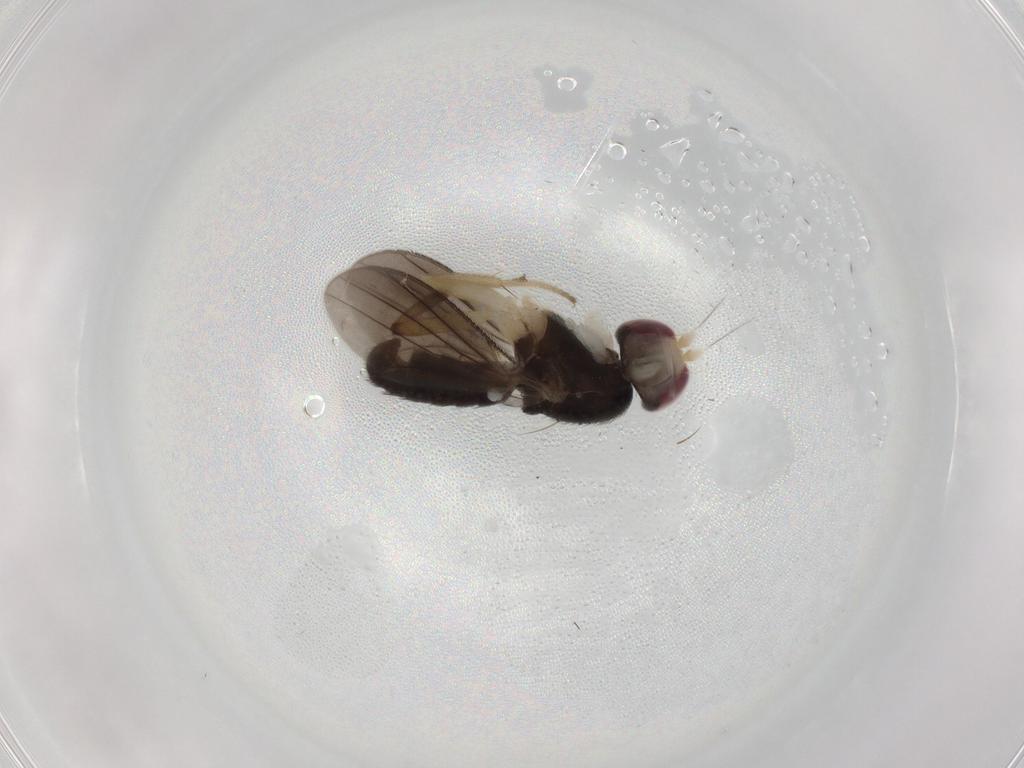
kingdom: Animalia
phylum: Arthropoda
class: Insecta
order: Diptera
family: Clusiidae
